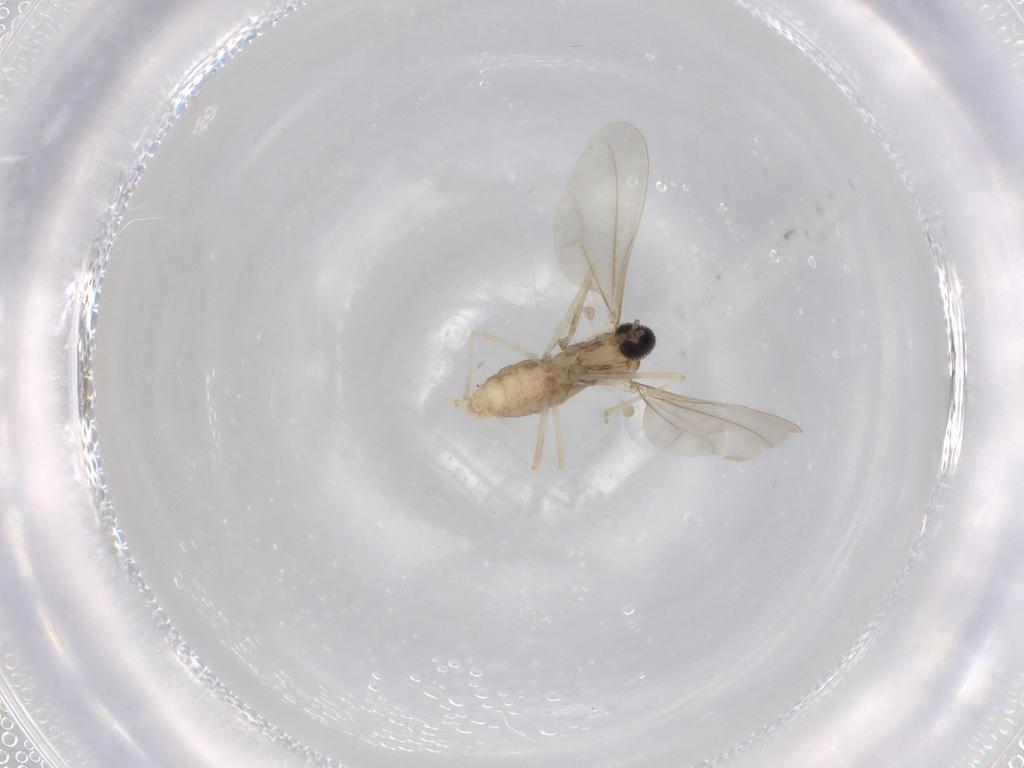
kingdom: Animalia
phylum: Arthropoda
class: Insecta
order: Diptera
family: Cecidomyiidae
